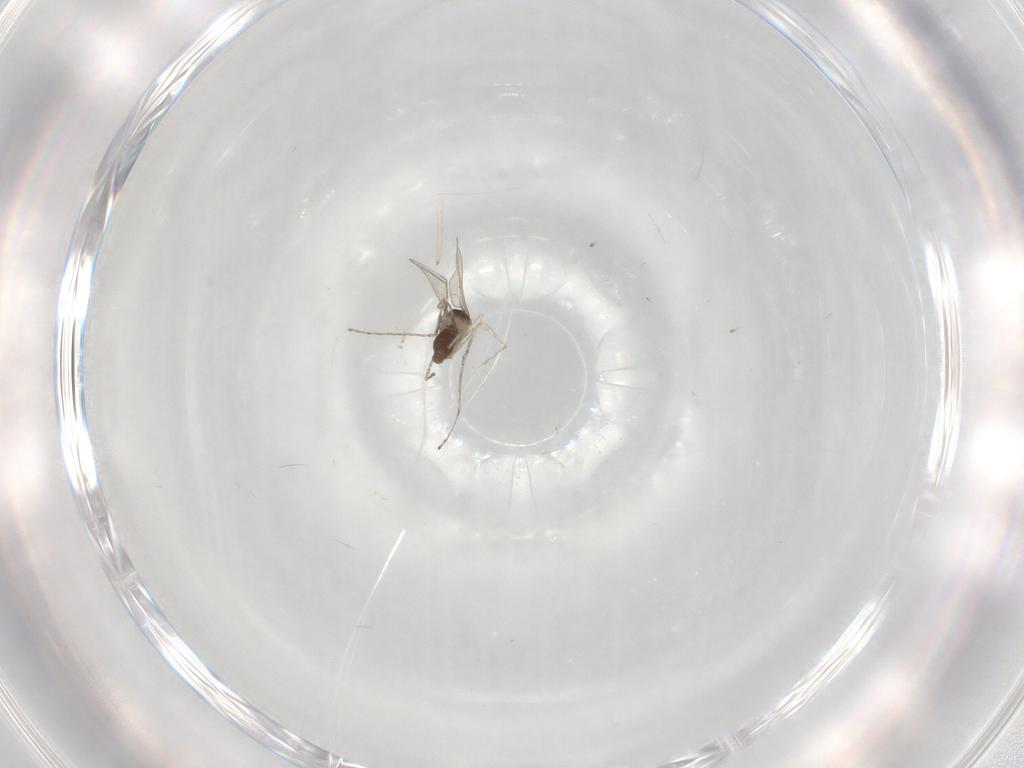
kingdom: Animalia
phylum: Arthropoda
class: Insecta
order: Diptera
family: Cecidomyiidae
